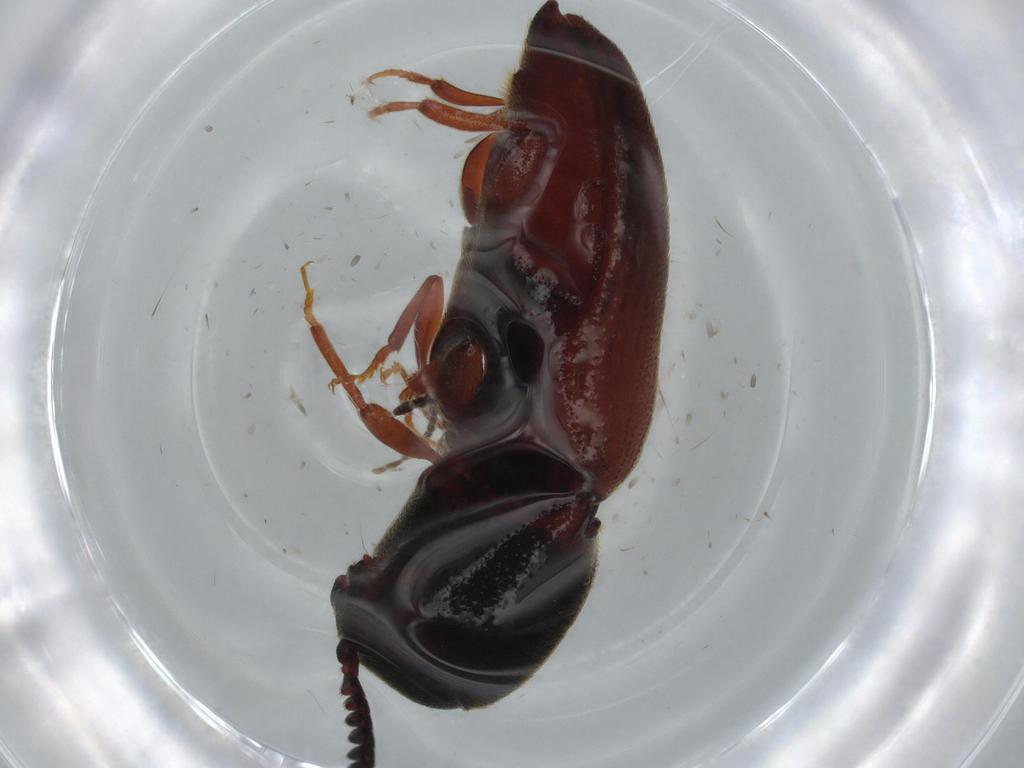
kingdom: Animalia
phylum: Arthropoda
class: Insecta
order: Coleoptera
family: Eucnemidae
